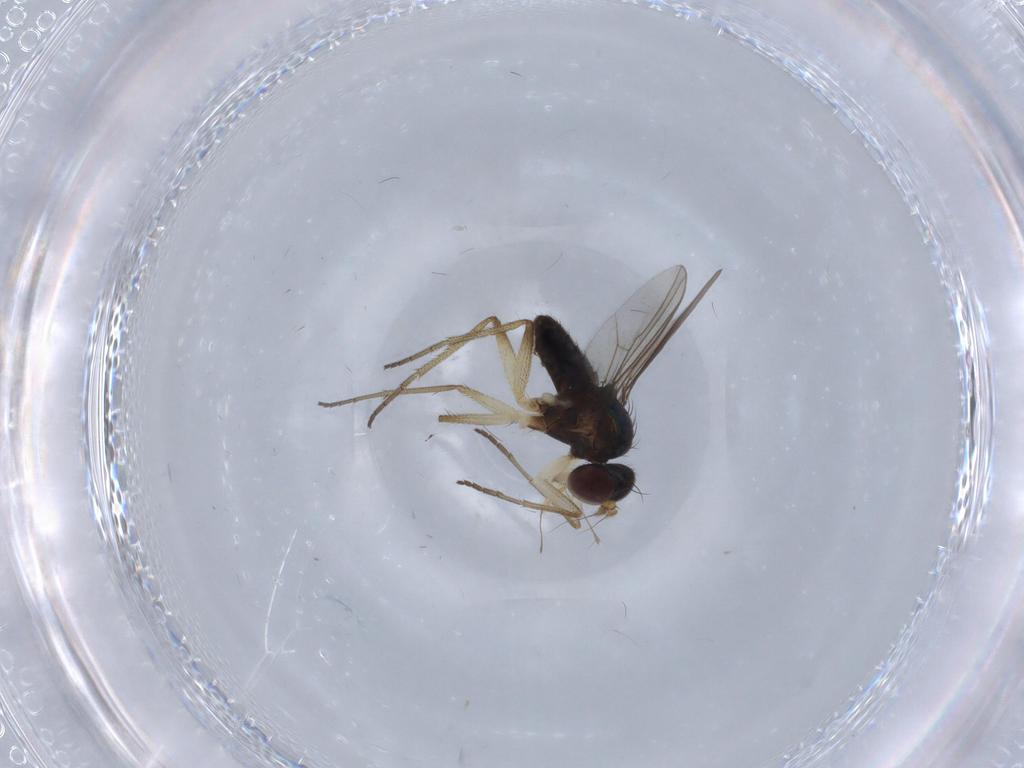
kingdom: Animalia
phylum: Arthropoda
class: Insecta
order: Diptera
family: Dolichopodidae
